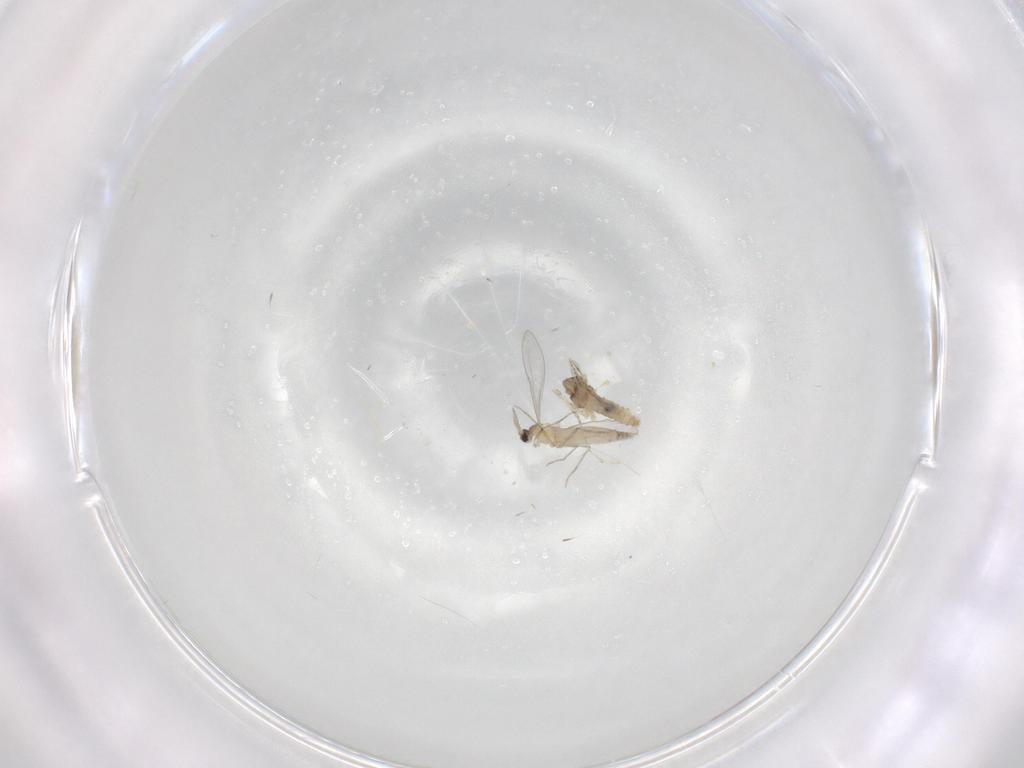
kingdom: Animalia
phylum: Arthropoda
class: Insecta
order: Diptera
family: Cecidomyiidae
